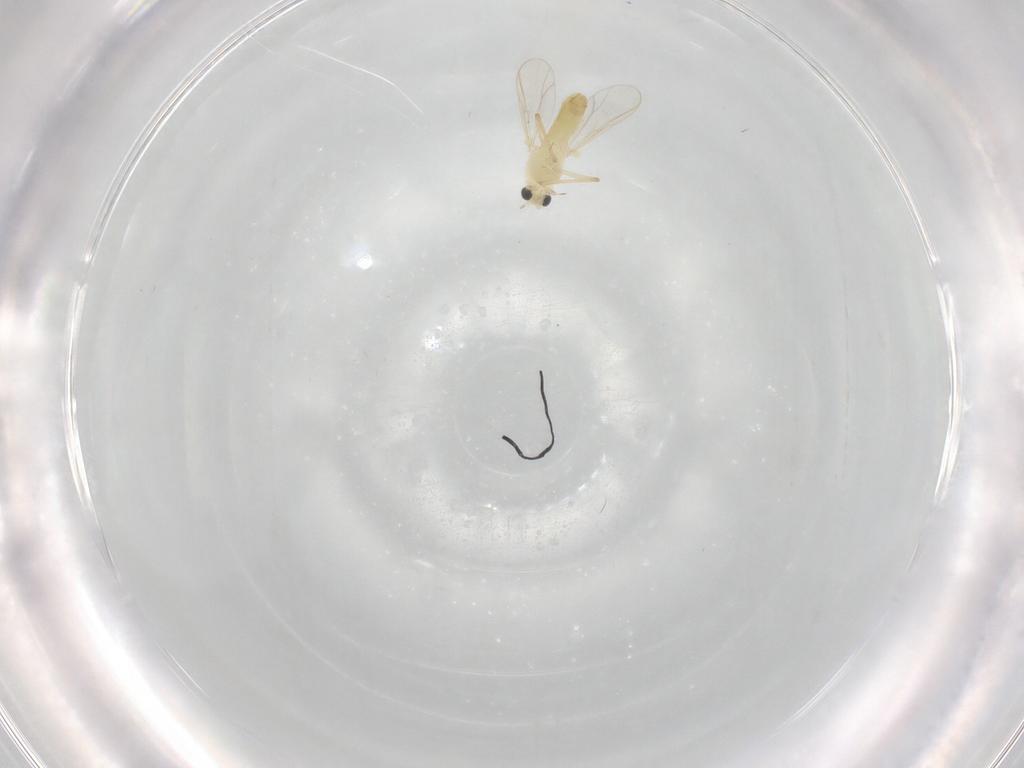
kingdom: Animalia
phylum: Arthropoda
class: Insecta
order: Diptera
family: Chironomidae
